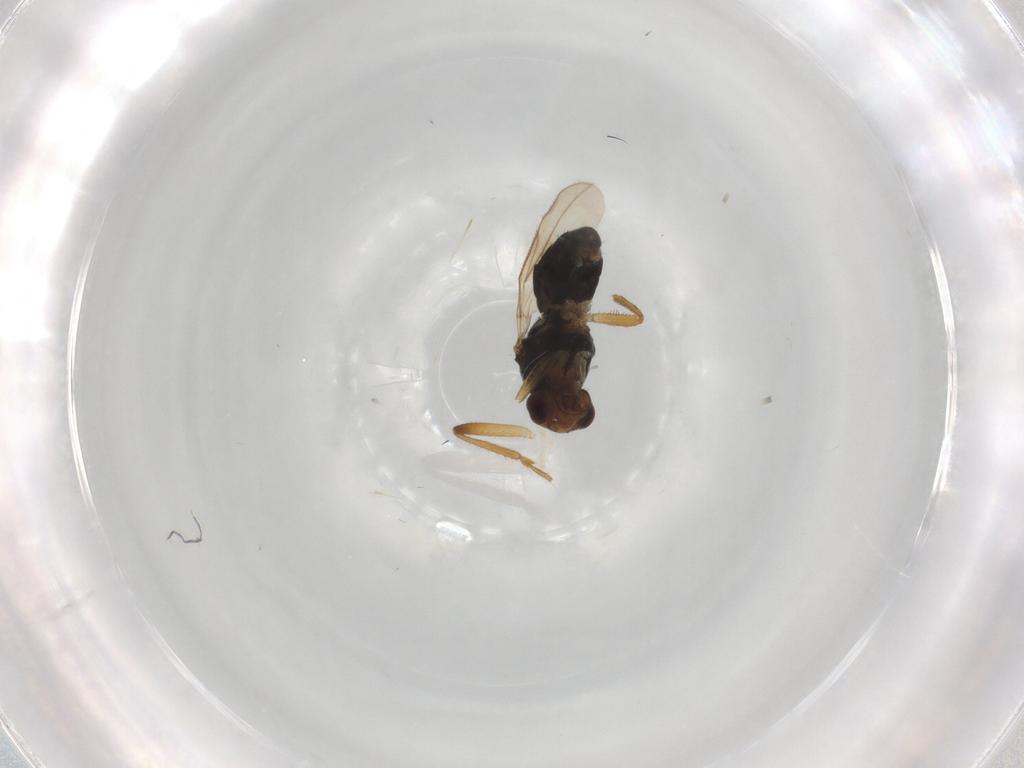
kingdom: Animalia
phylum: Arthropoda
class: Insecta
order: Diptera
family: Sphaeroceridae
